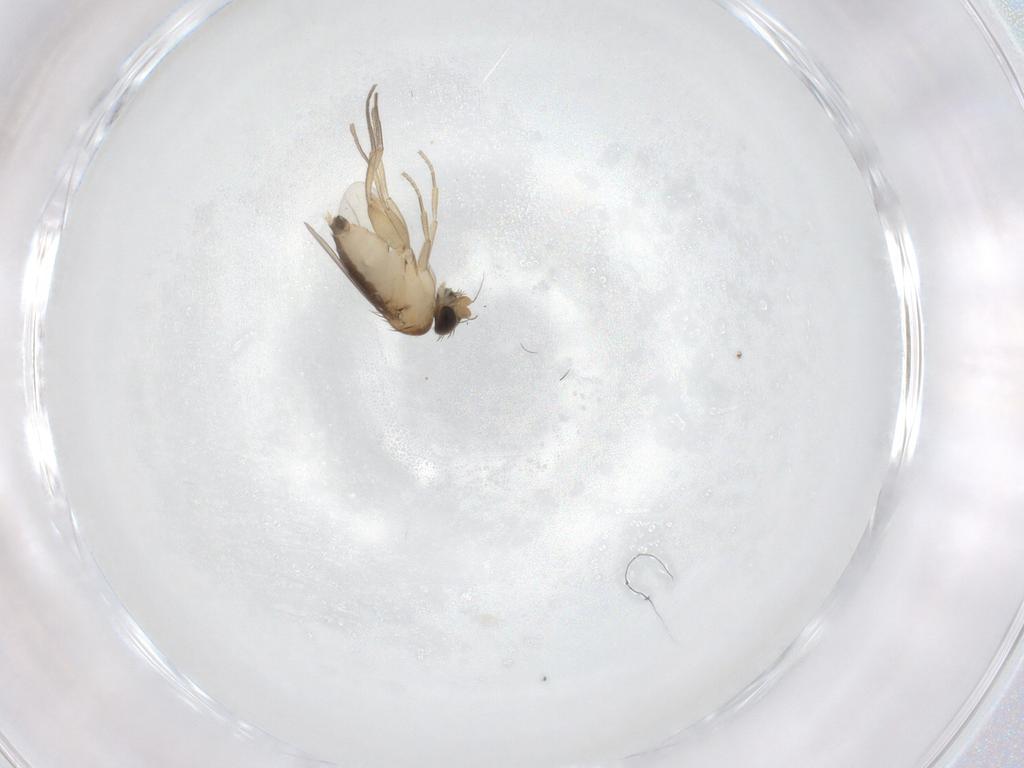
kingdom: Animalia
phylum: Arthropoda
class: Insecta
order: Diptera
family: Phoridae
